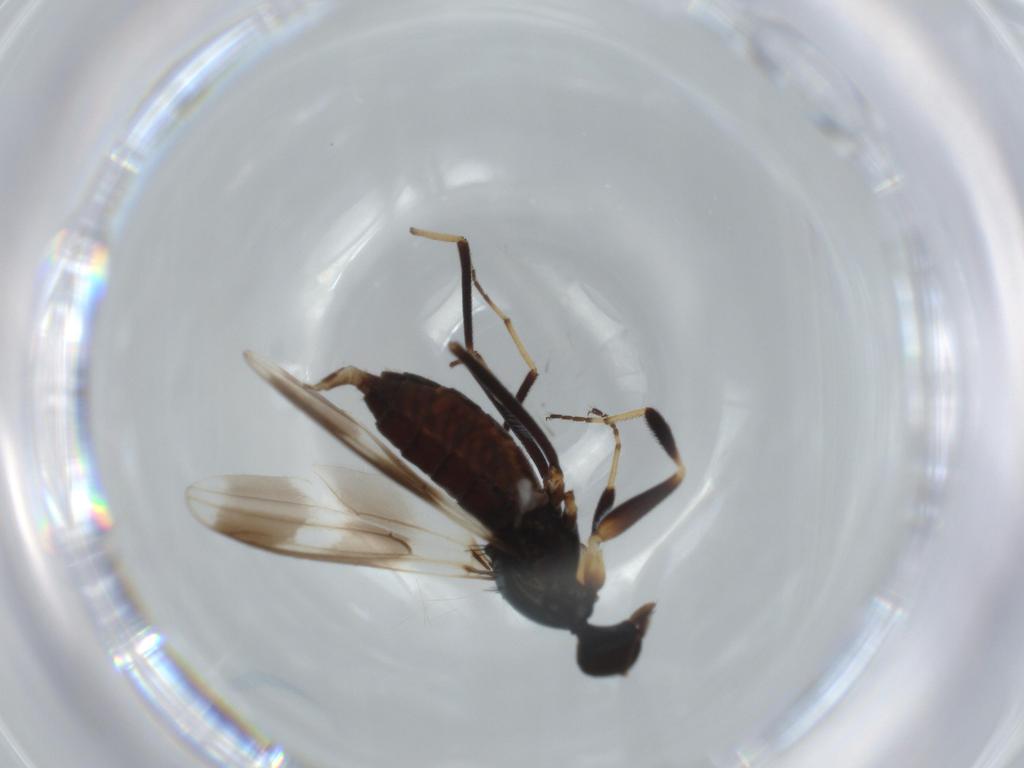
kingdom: Animalia
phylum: Arthropoda
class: Insecta
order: Diptera
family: Hybotidae
